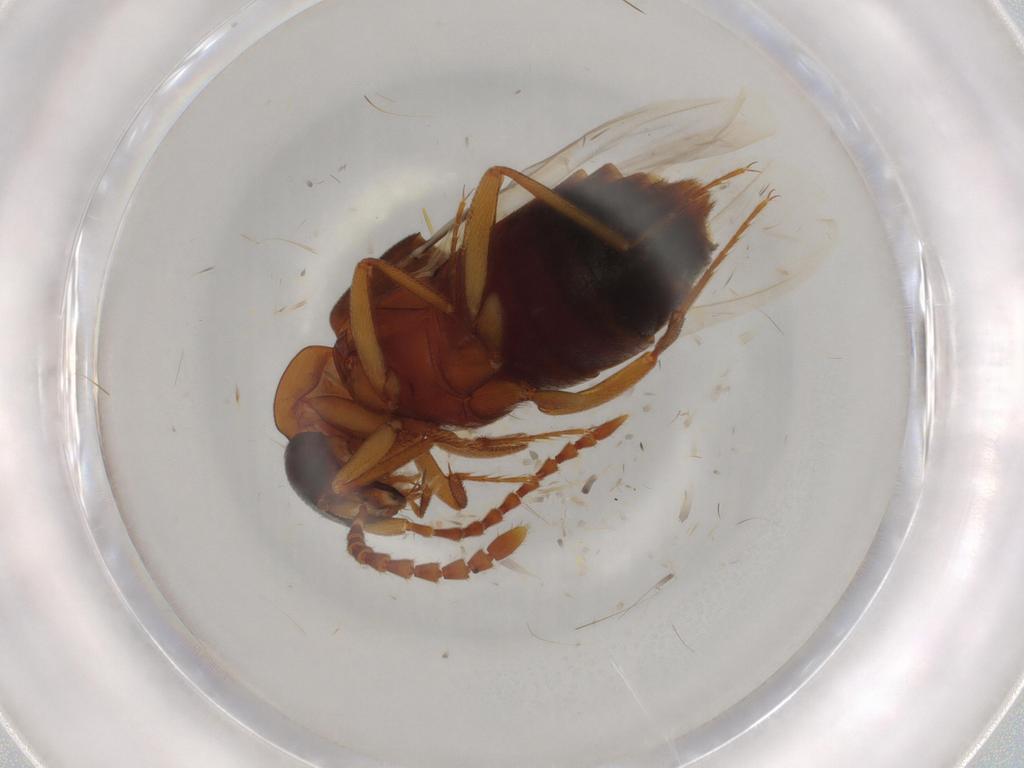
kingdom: Animalia
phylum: Arthropoda
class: Insecta
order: Coleoptera
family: Staphylinidae
